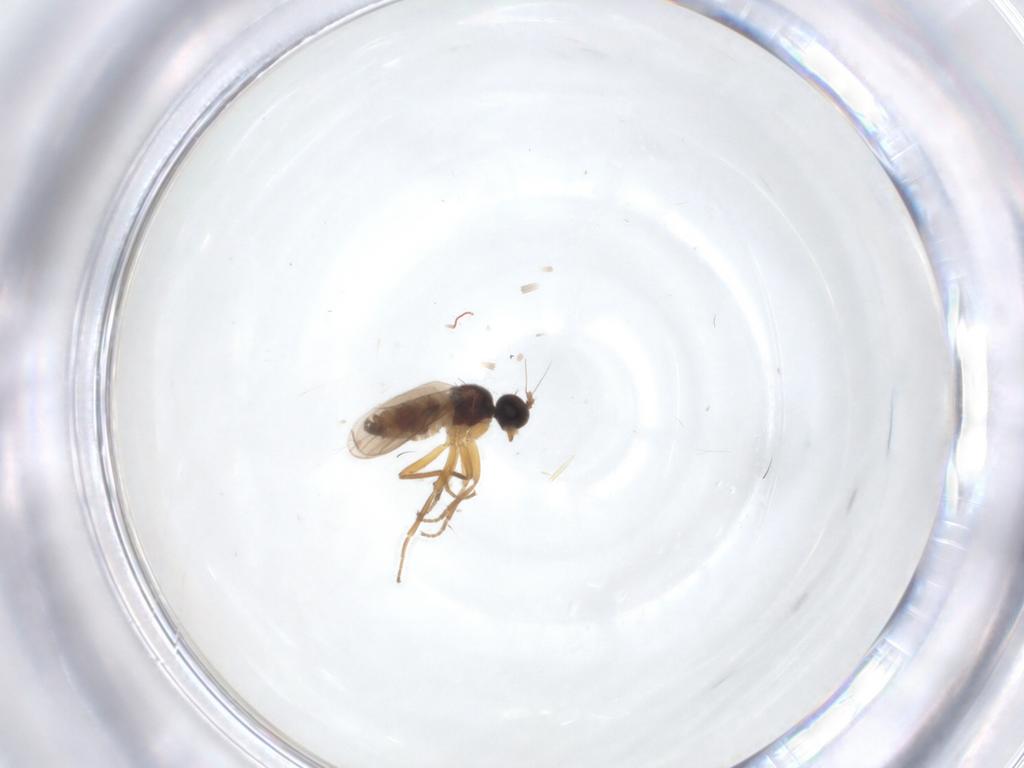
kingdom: Animalia
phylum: Arthropoda
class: Insecta
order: Diptera
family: Hybotidae
